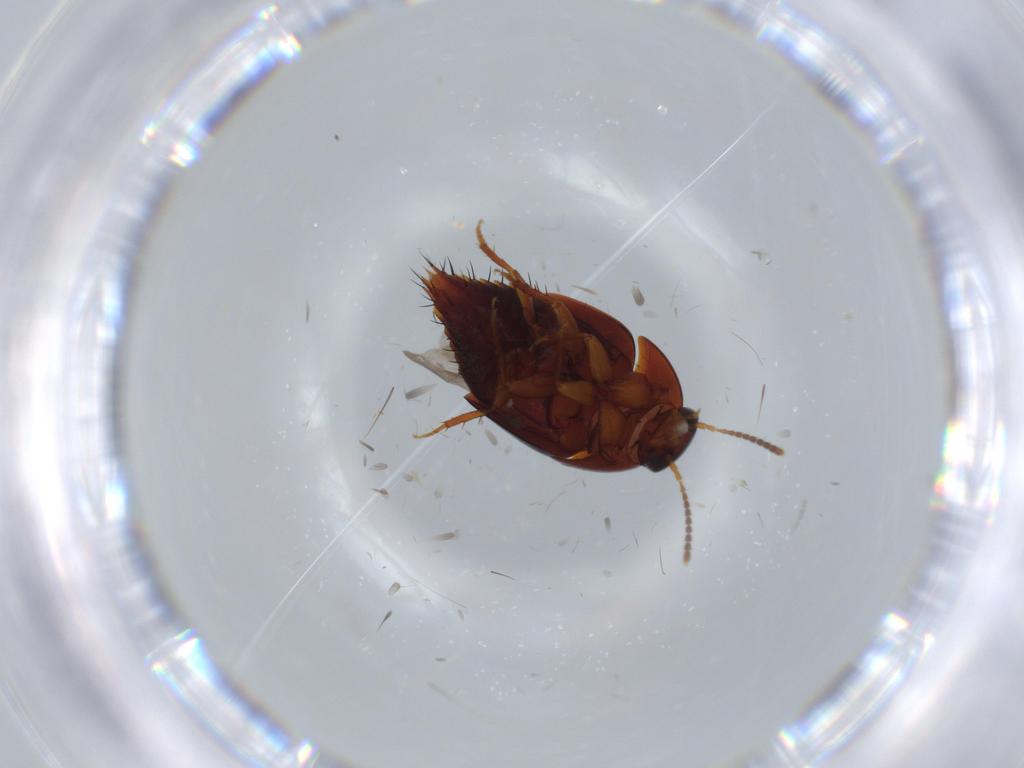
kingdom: Animalia
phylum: Arthropoda
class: Insecta
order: Coleoptera
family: Staphylinidae
